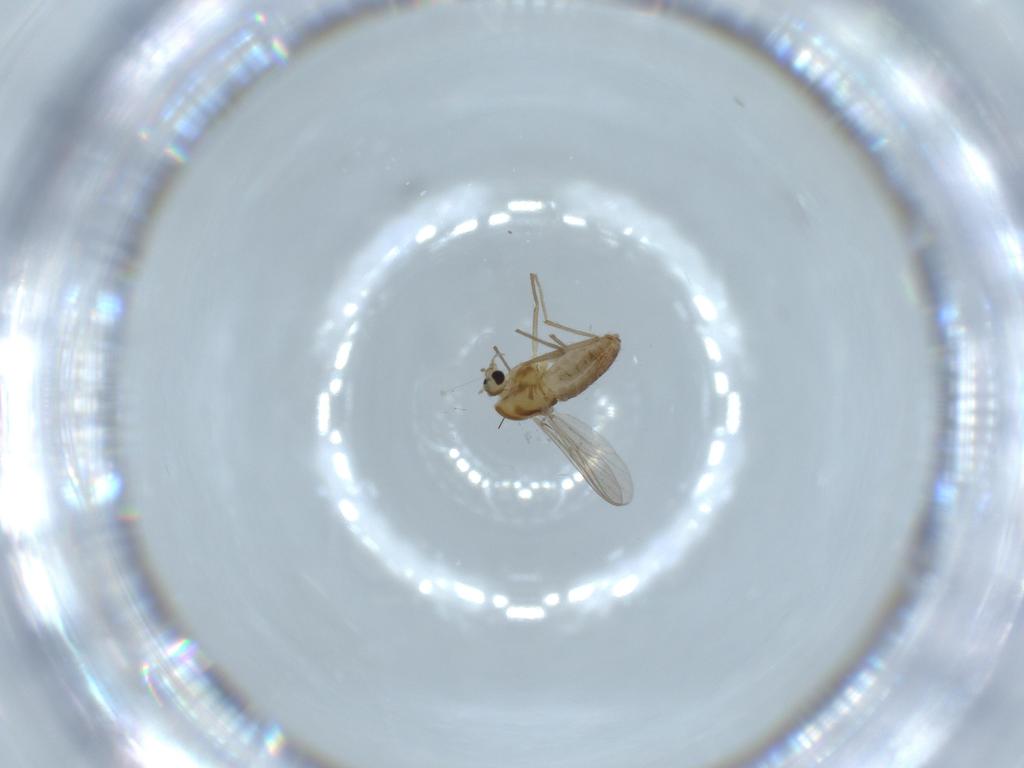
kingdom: Animalia
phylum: Arthropoda
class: Insecta
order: Diptera
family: Chironomidae
